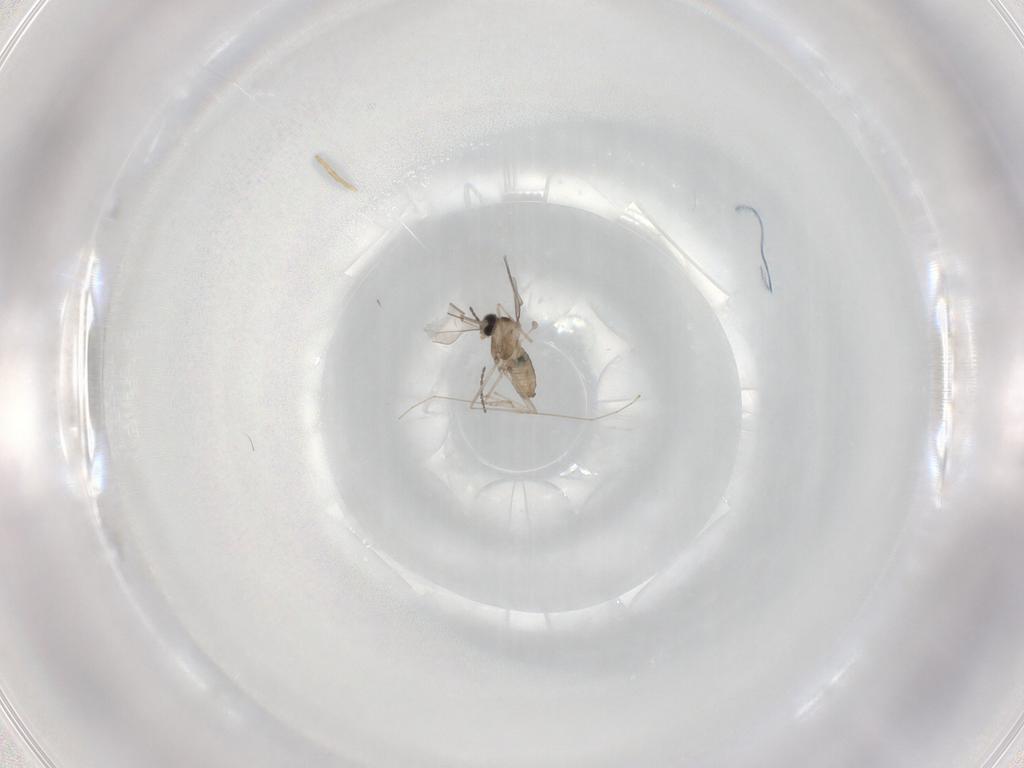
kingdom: Animalia
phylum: Arthropoda
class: Insecta
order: Diptera
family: Cecidomyiidae
